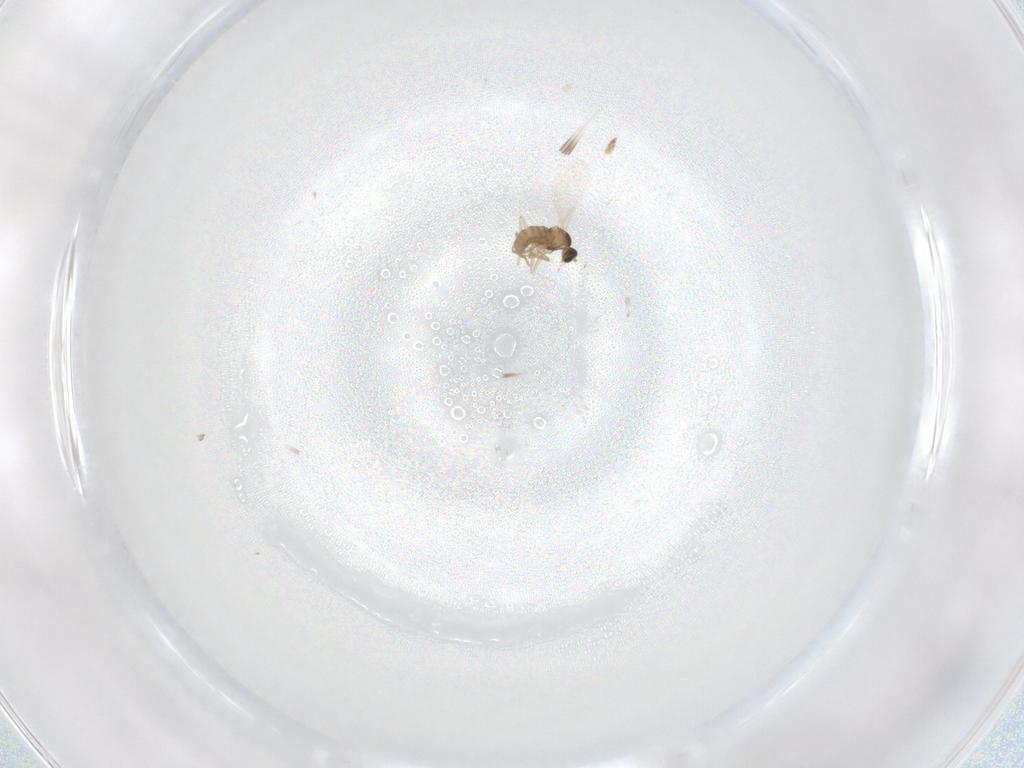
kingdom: Animalia
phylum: Arthropoda
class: Insecta
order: Diptera
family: Cecidomyiidae
